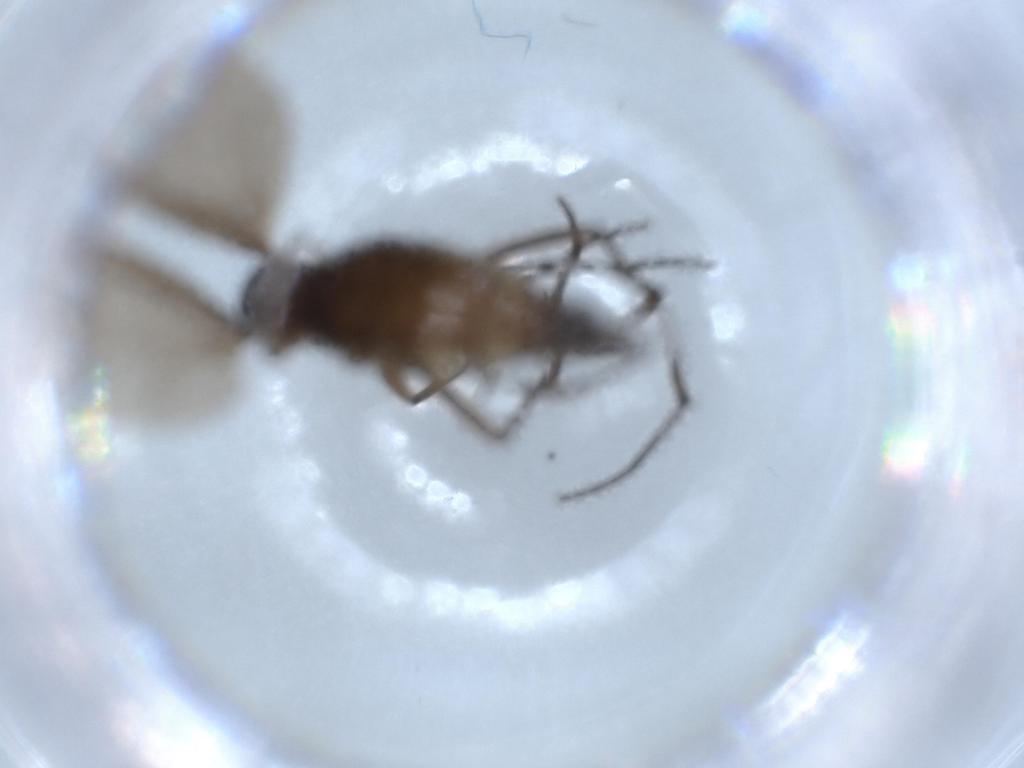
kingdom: Animalia
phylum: Arthropoda
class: Insecta
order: Diptera
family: Sciaridae
